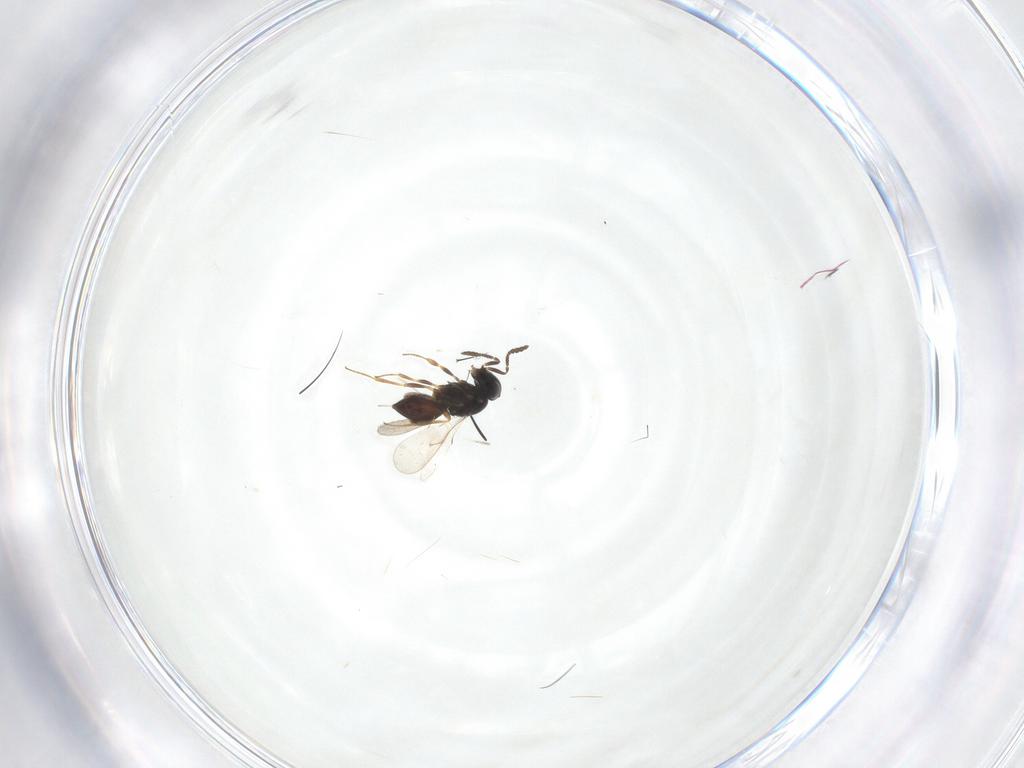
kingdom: Animalia
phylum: Arthropoda
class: Insecta
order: Hymenoptera
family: Scelionidae
